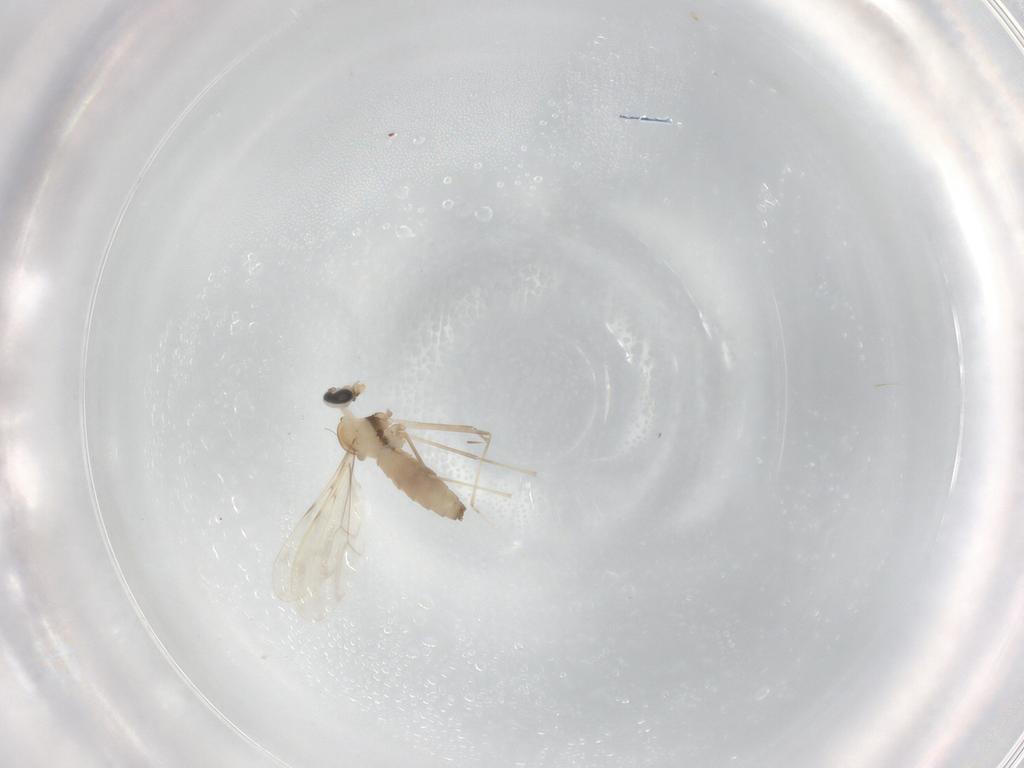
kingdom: Animalia
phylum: Arthropoda
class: Insecta
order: Diptera
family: Cecidomyiidae
